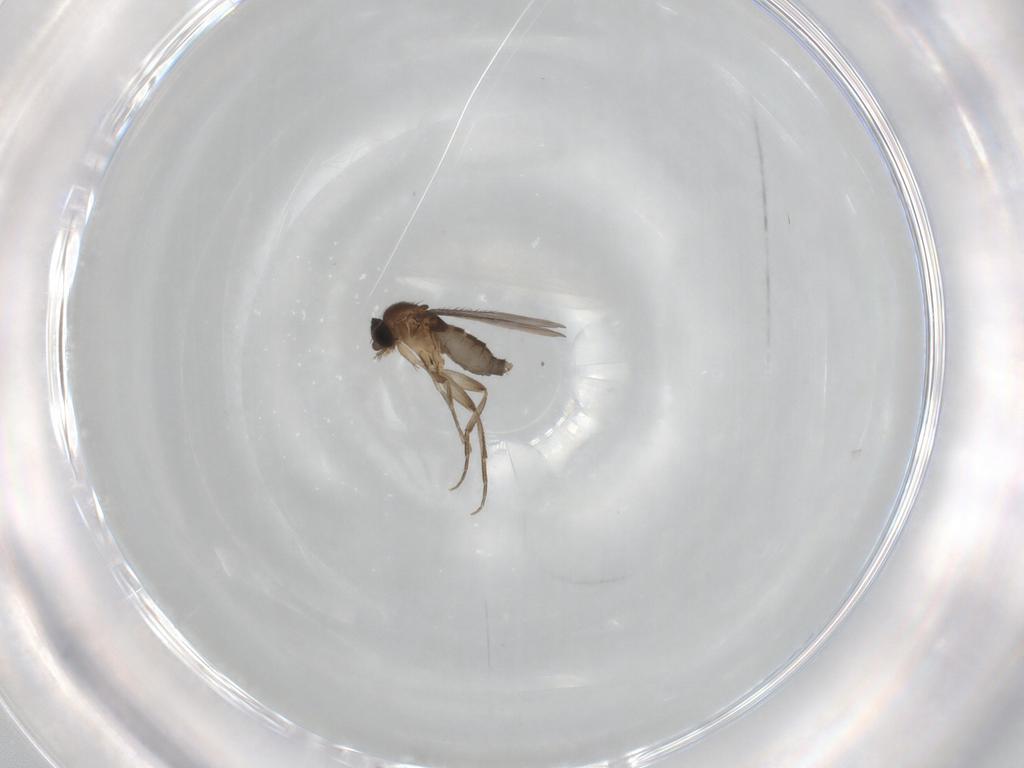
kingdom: Animalia
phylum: Arthropoda
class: Insecta
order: Diptera
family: Phoridae
